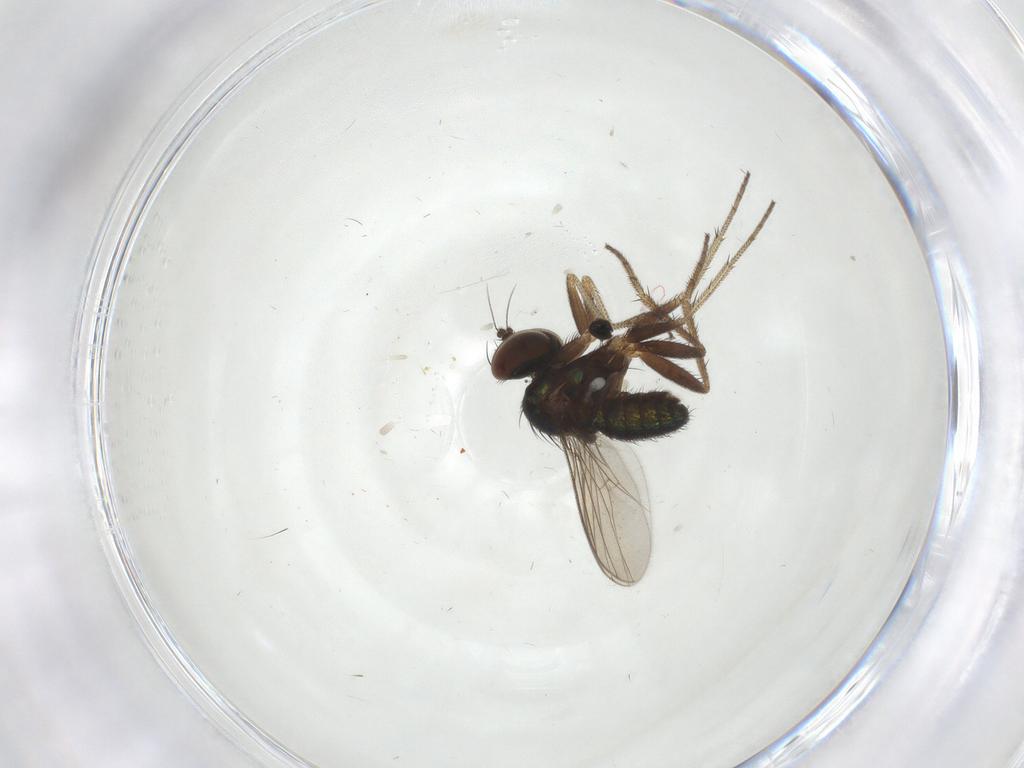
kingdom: Animalia
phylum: Arthropoda
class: Insecta
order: Diptera
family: Dolichopodidae
